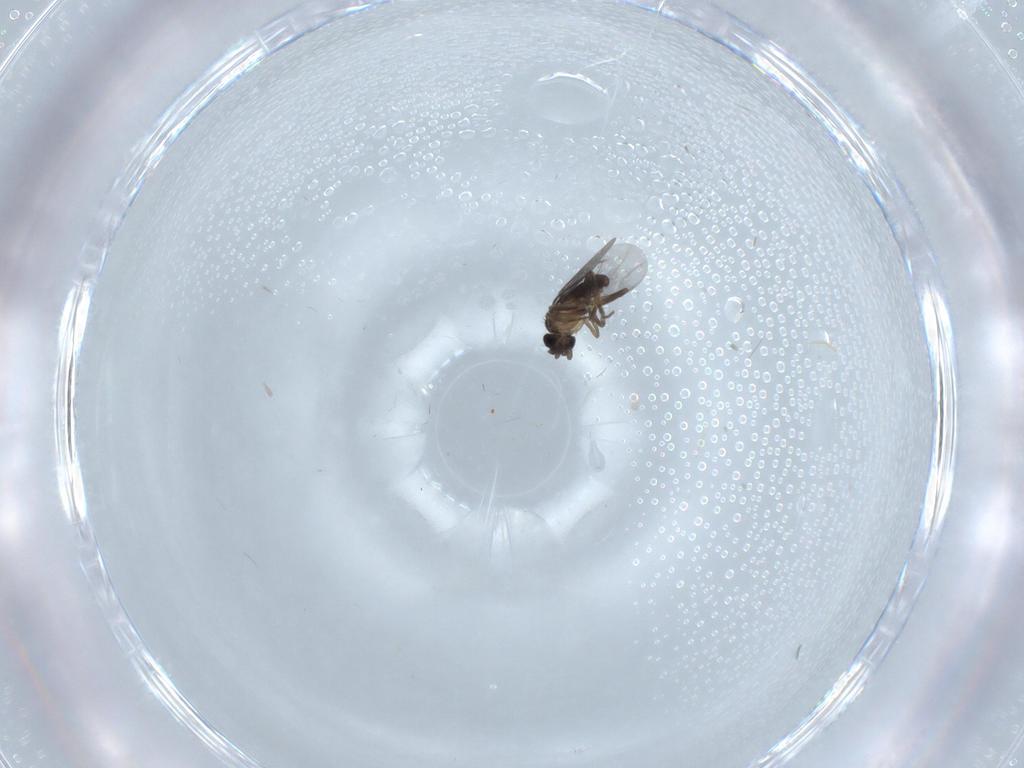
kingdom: Animalia
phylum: Arthropoda
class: Insecta
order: Diptera
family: Chironomidae
